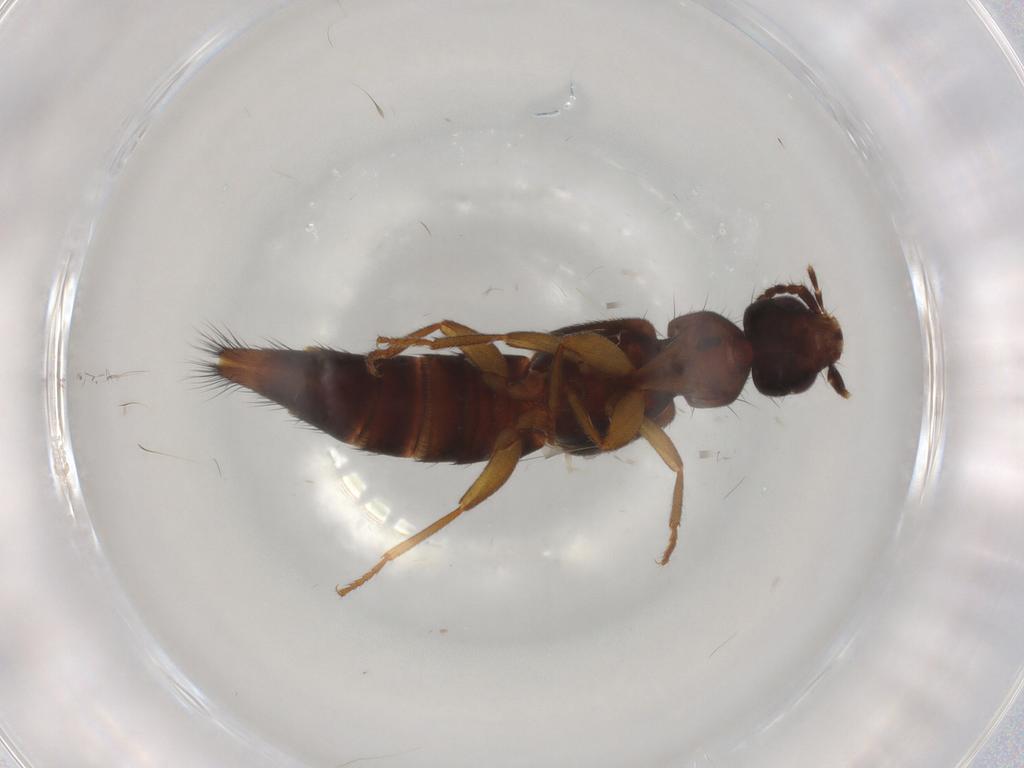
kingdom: Animalia
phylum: Arthropoda
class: Insecta
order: Coleoptera
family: Staphylinidae
